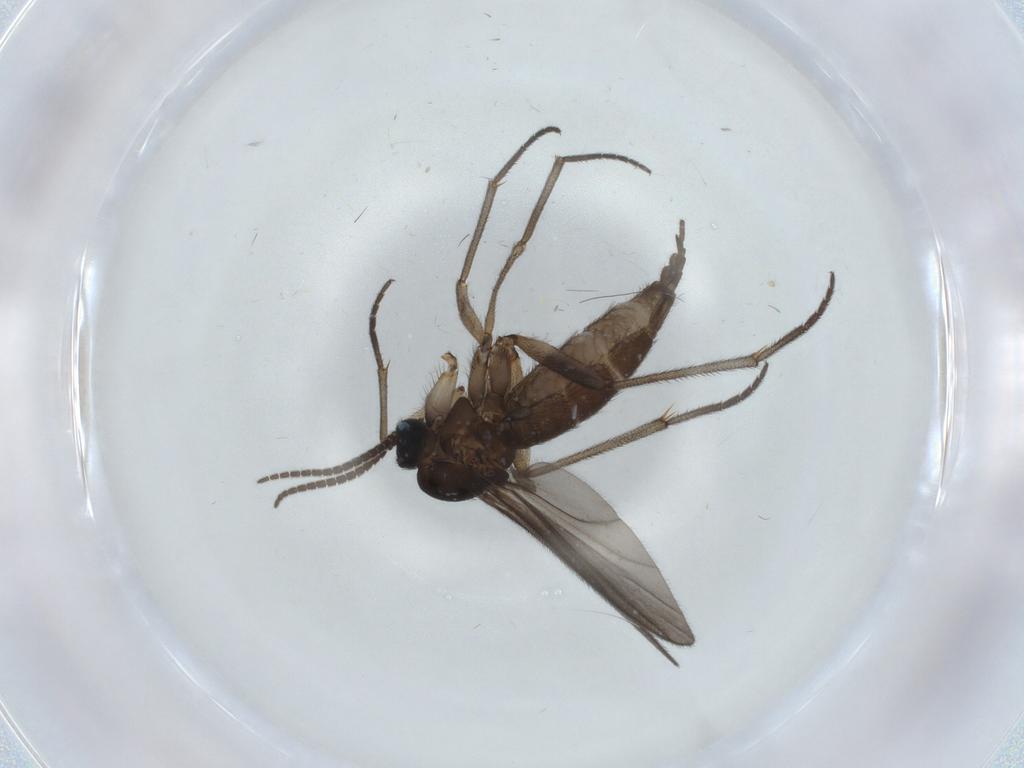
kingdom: Animalia
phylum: Arthropoda
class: Insecta
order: Diptera
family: Sciaridae
